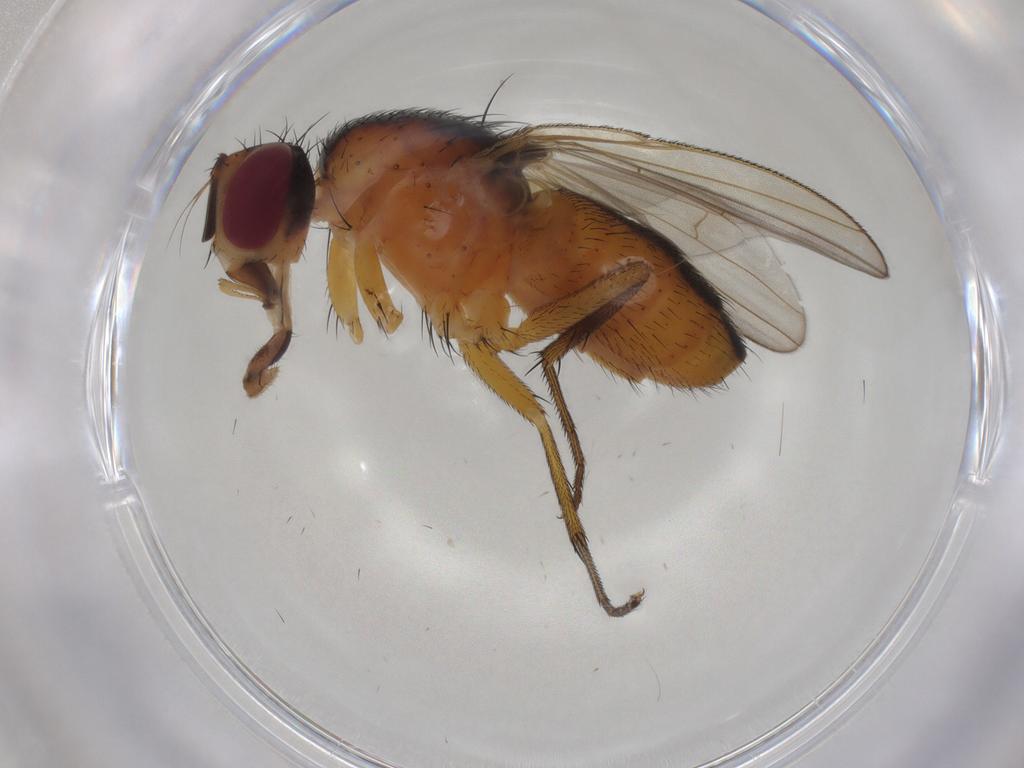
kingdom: Animalia
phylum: Arthropoda
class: Insecta
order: Diptera
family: Muscidae
